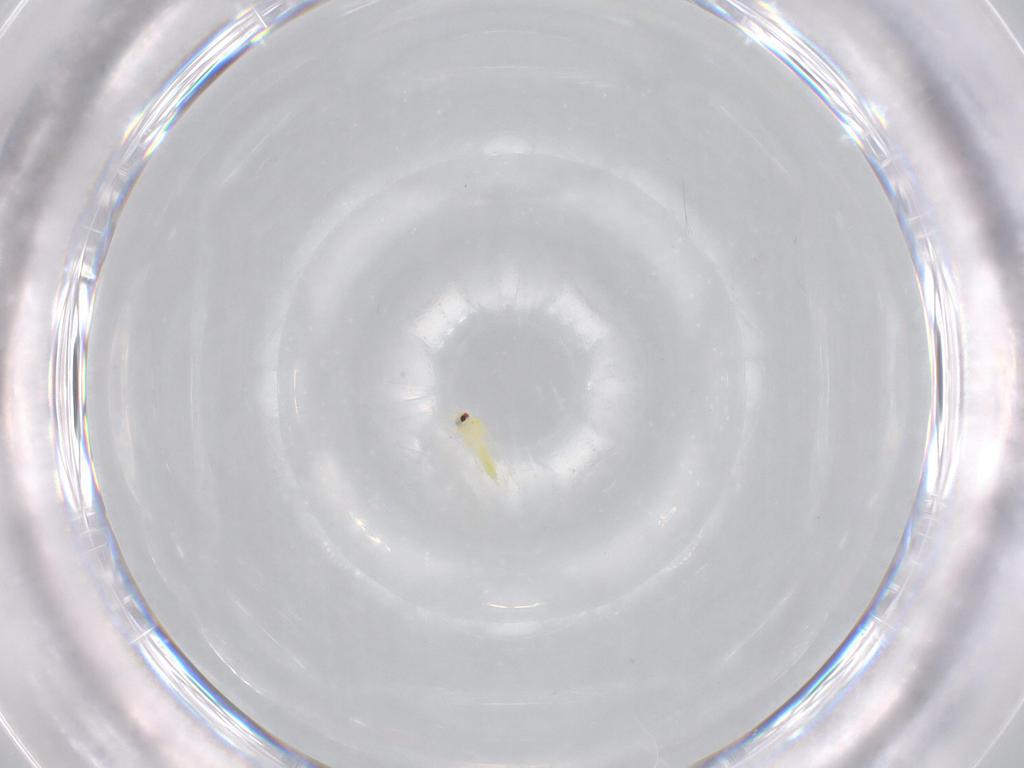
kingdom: Animalia
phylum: Arthropoda
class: Insecta
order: Hemiptera
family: Aleyrodidae
